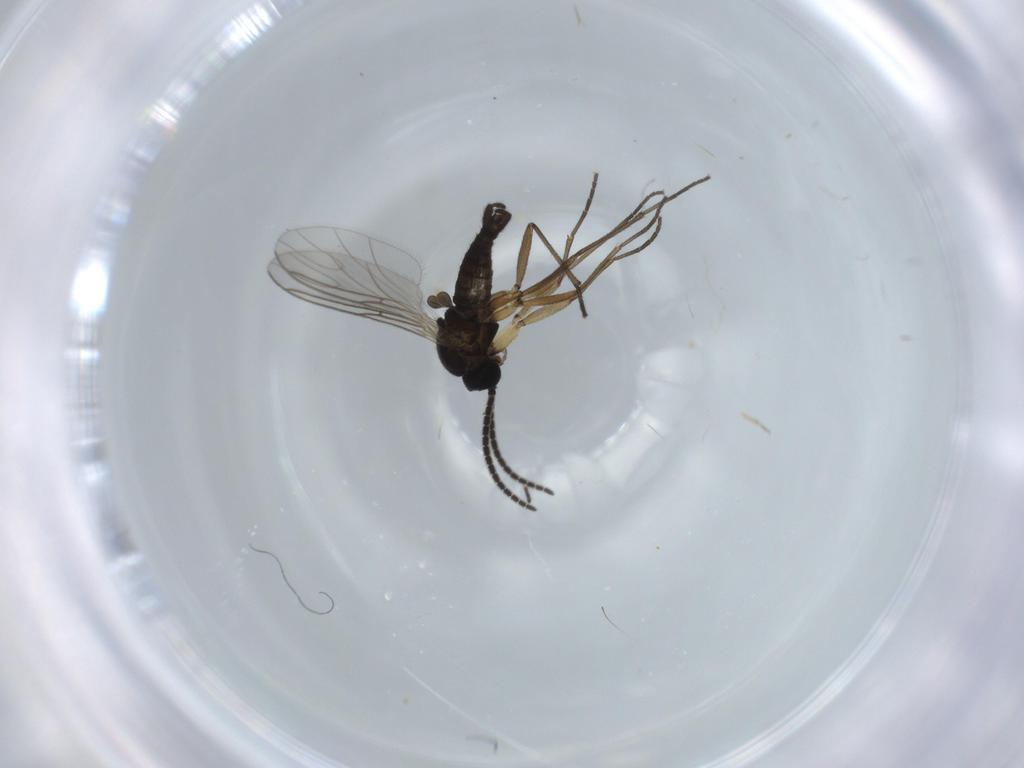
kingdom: Animalia
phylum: Arthropoda
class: Insecta
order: Diptera
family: Sciaridae
